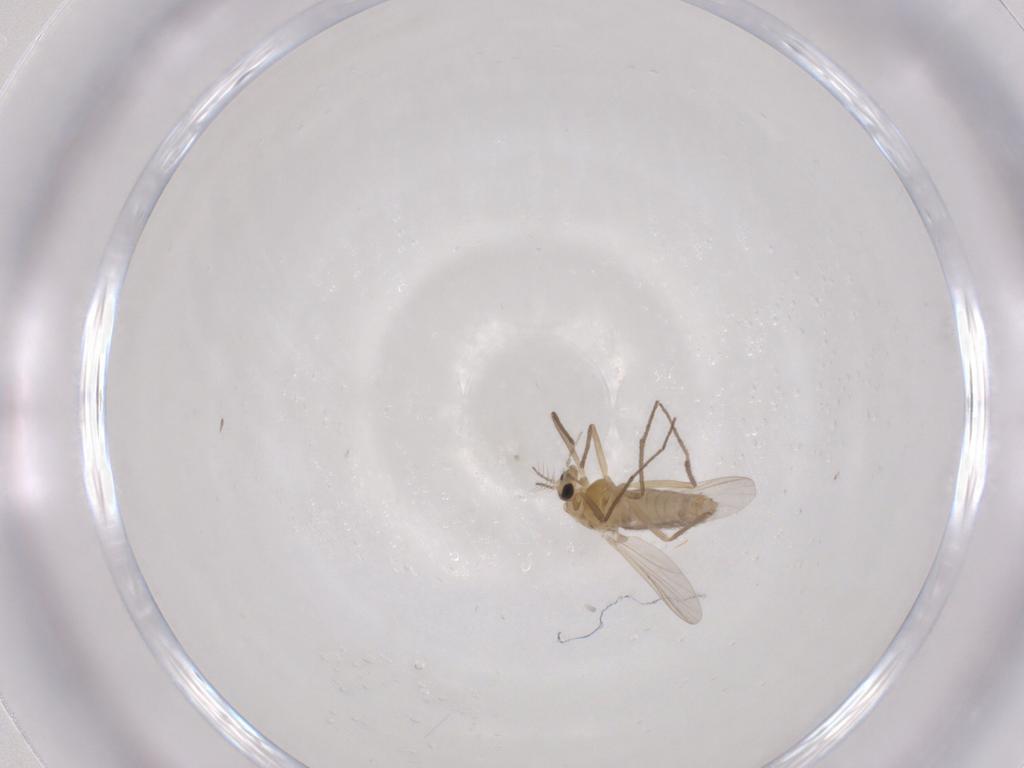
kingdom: Animalia
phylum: Arthropoda
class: Insecta
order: Diptera
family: Chironomidae
